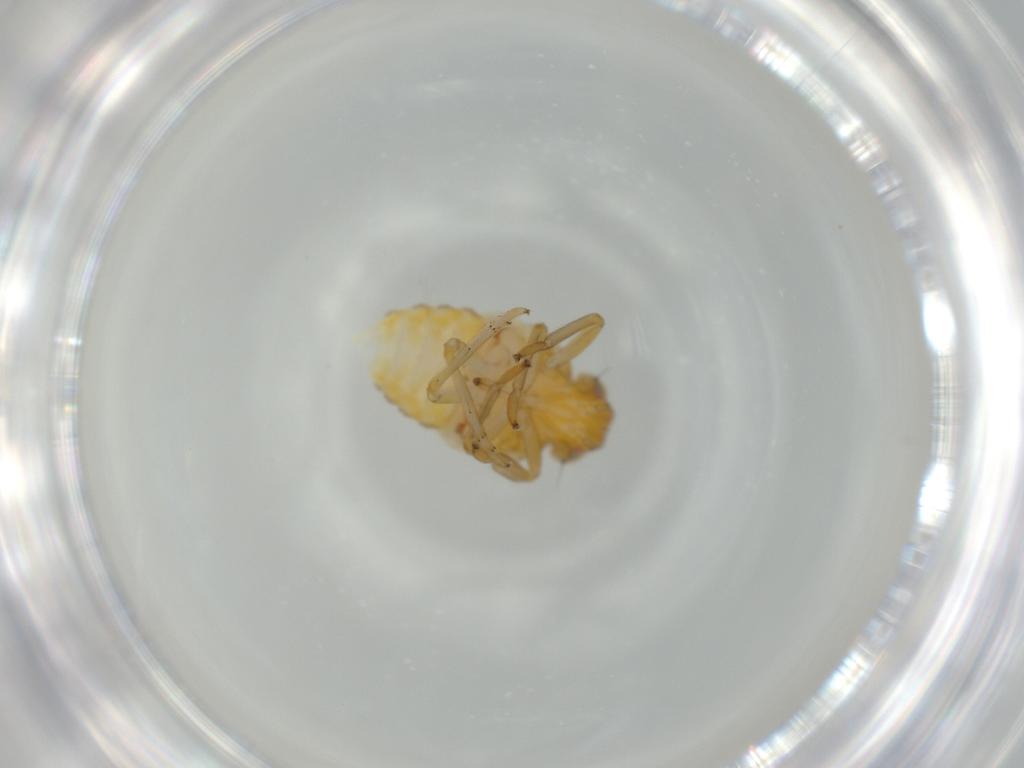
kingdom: Animalia
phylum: Arthropoda
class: Insecta
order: Hemiptera
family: Issidae
